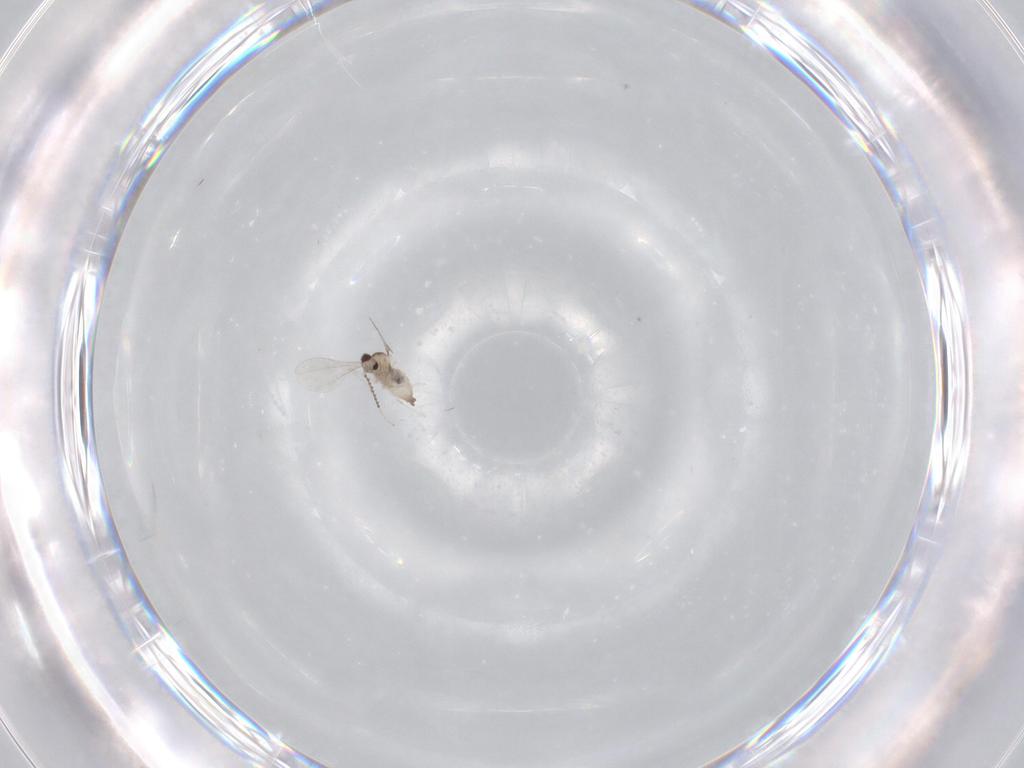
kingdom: Animalia
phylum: Arthropoda
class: Insecta
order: Diptera
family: Cecidomyiidae
